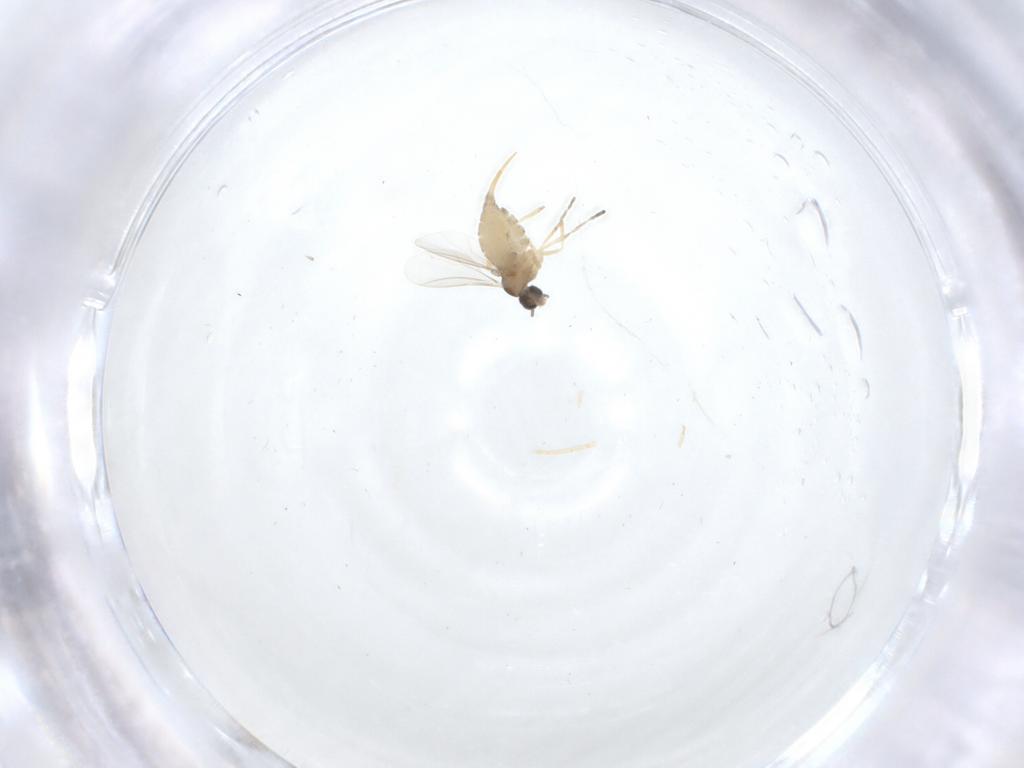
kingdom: Animalia
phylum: Arthropoda
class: Insecta
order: Diptera
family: Cecidomyiidae
